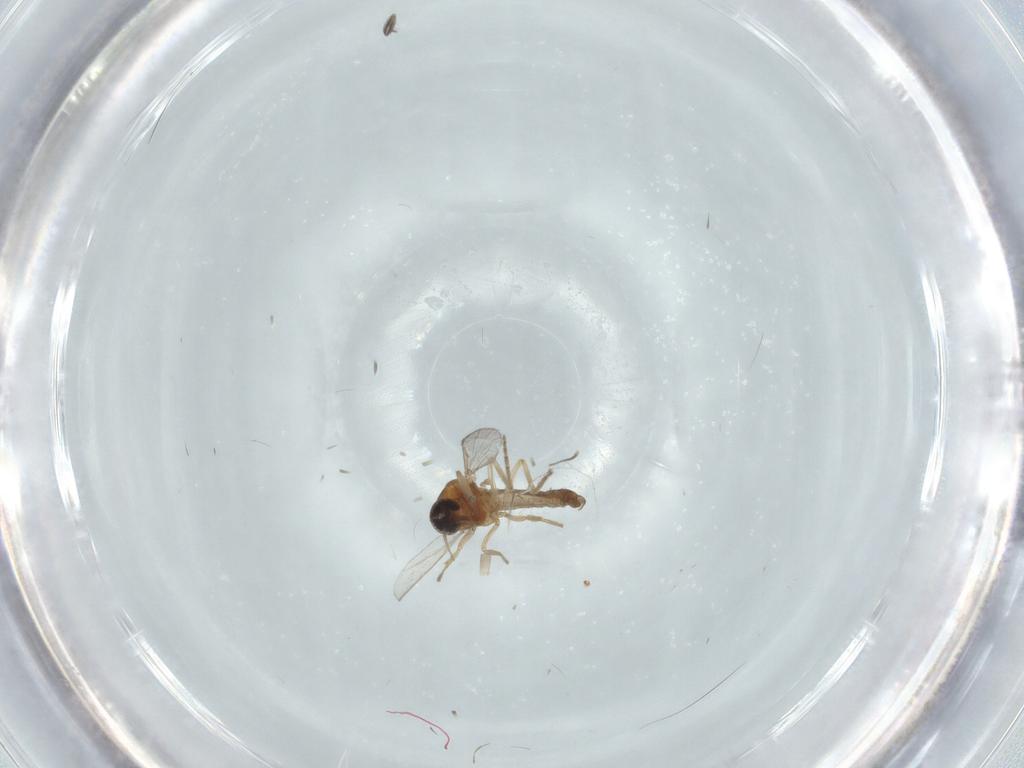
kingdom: Animalia
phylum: Arthropoda
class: Insecta
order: Diptera
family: Ceratopogonidae
